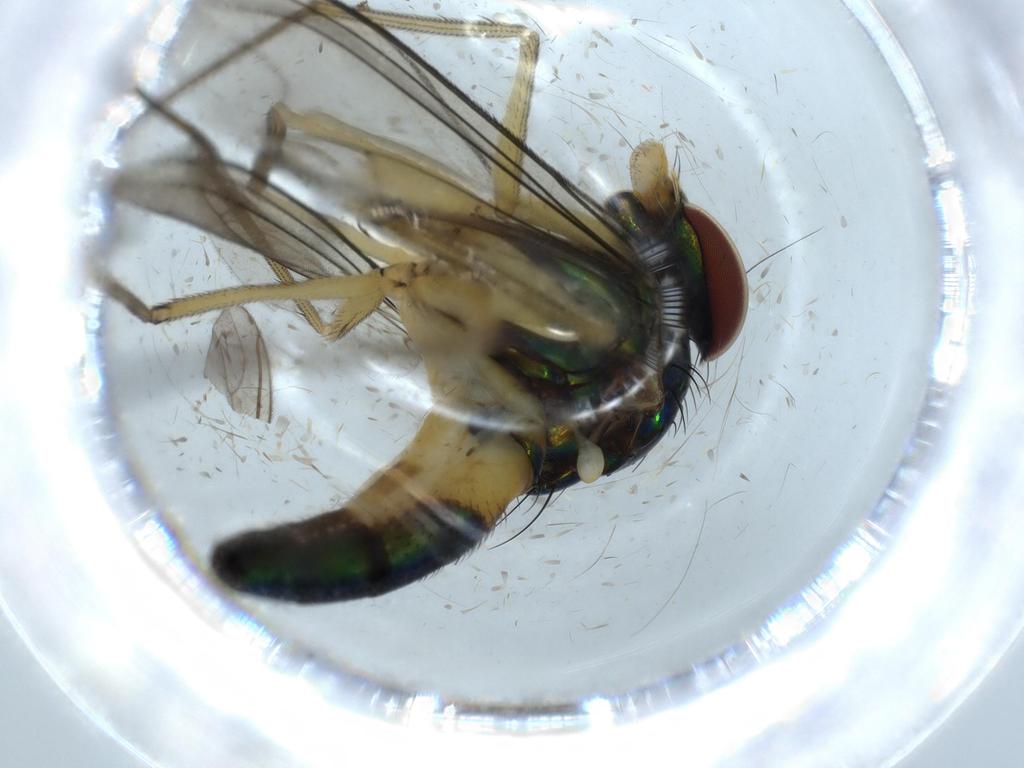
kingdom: Animalia
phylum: Arthropoda
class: Insecta
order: Diptera
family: Dolichopodidae
